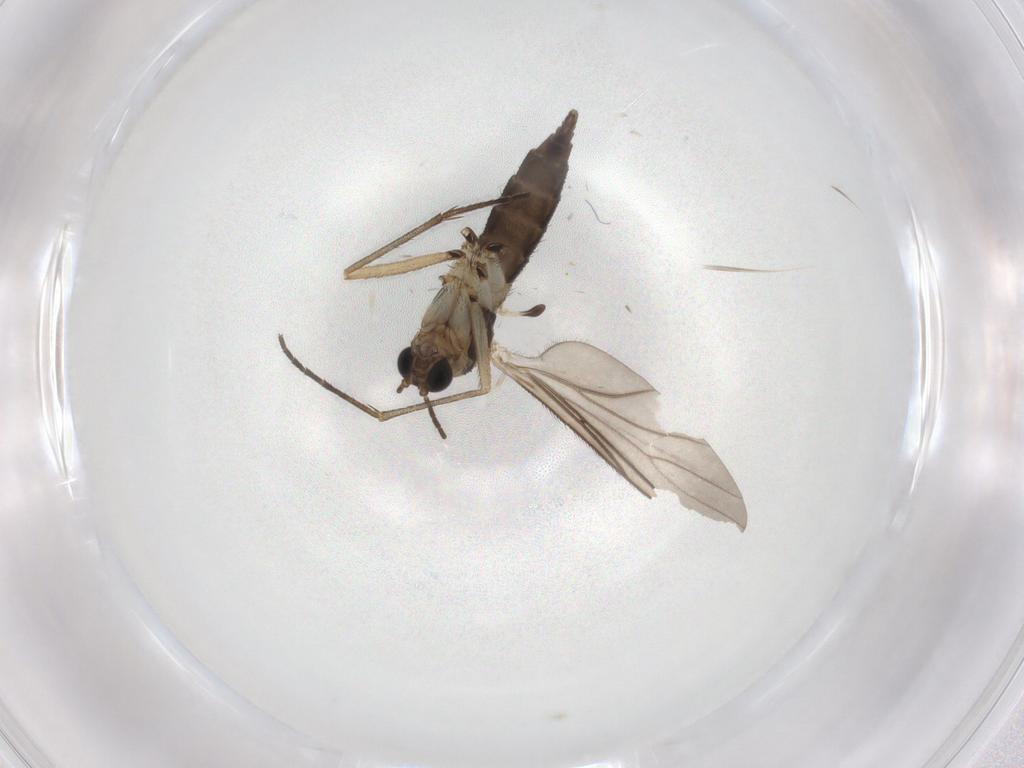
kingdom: Animalia
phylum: Arthropoda
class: Insecta
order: Diptera
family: Sciaridae
